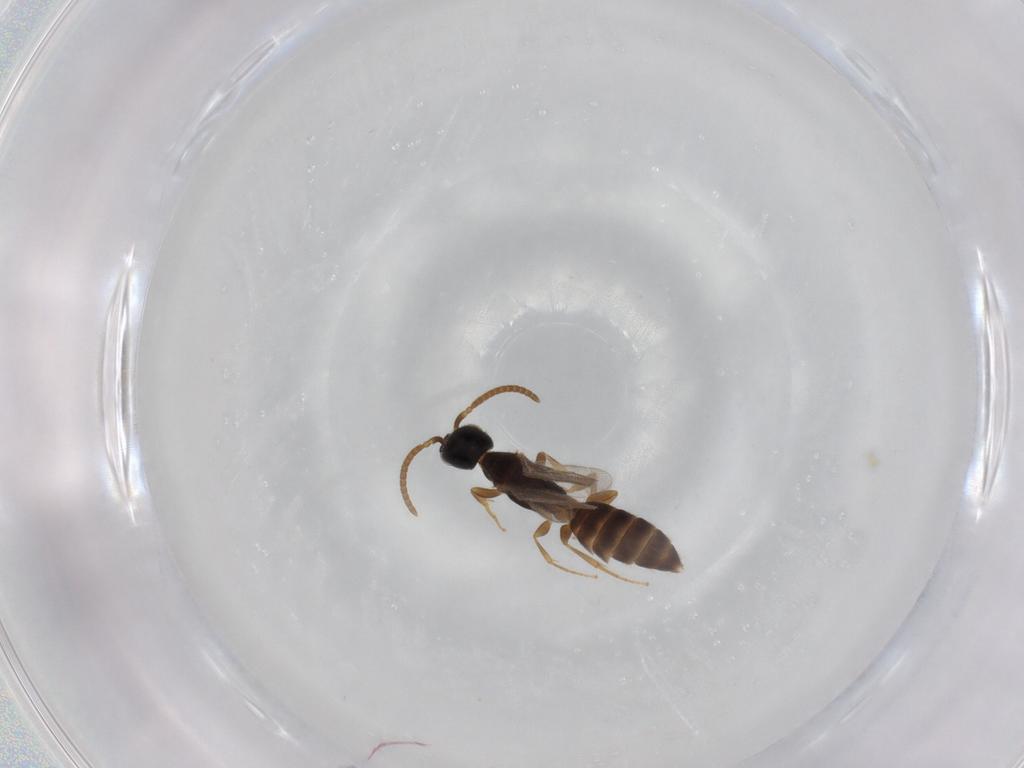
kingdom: Animalia
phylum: Arthropoda
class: Insecta
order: Hymenoptera
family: Bethylidae
